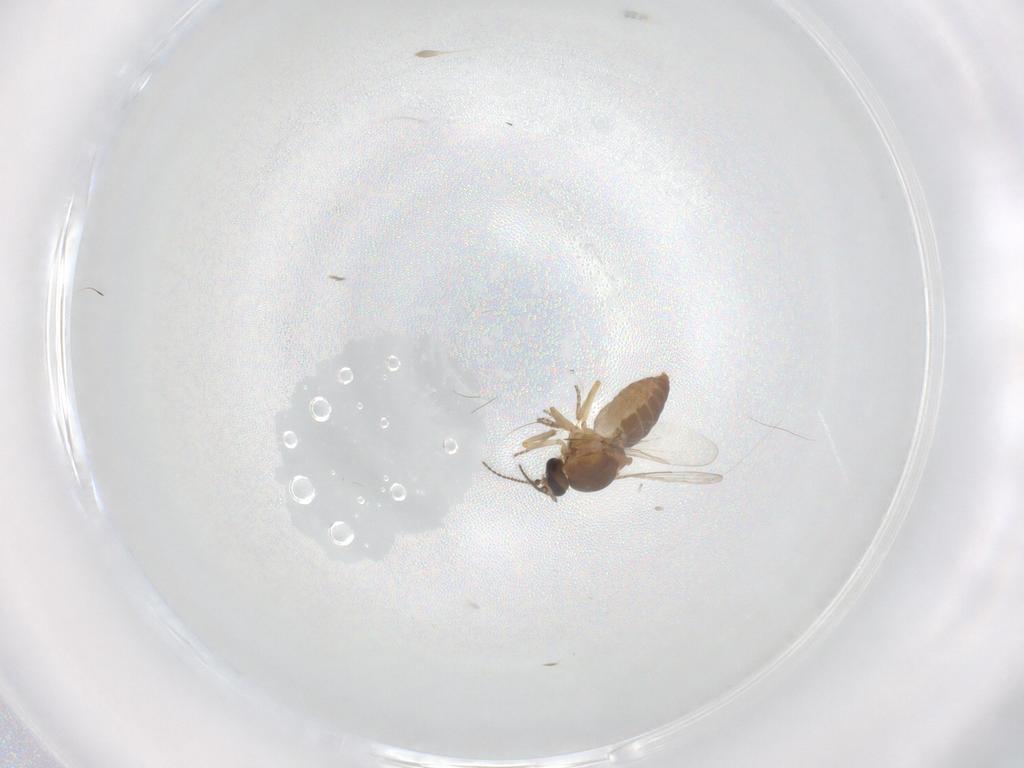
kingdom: Animalia
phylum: Arthropoda
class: Insecta
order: Diptera
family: Ceratopogonidae
